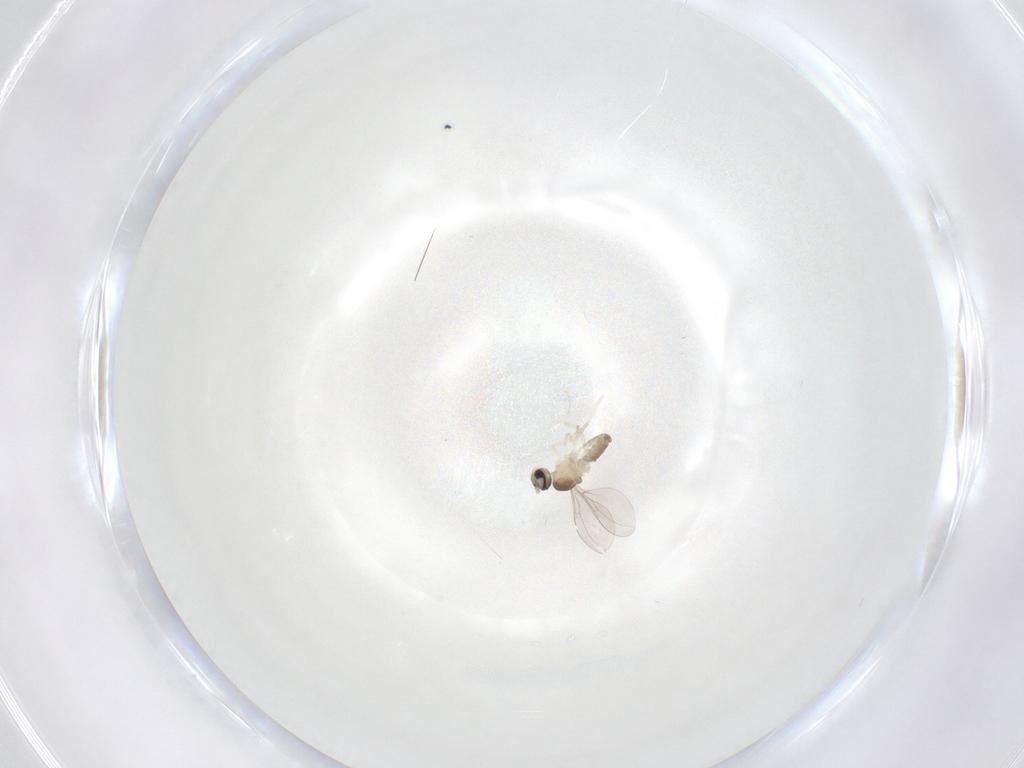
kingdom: Animalia
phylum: Arthropoda
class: Insecta
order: Diptera
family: Cecidomyiidae
